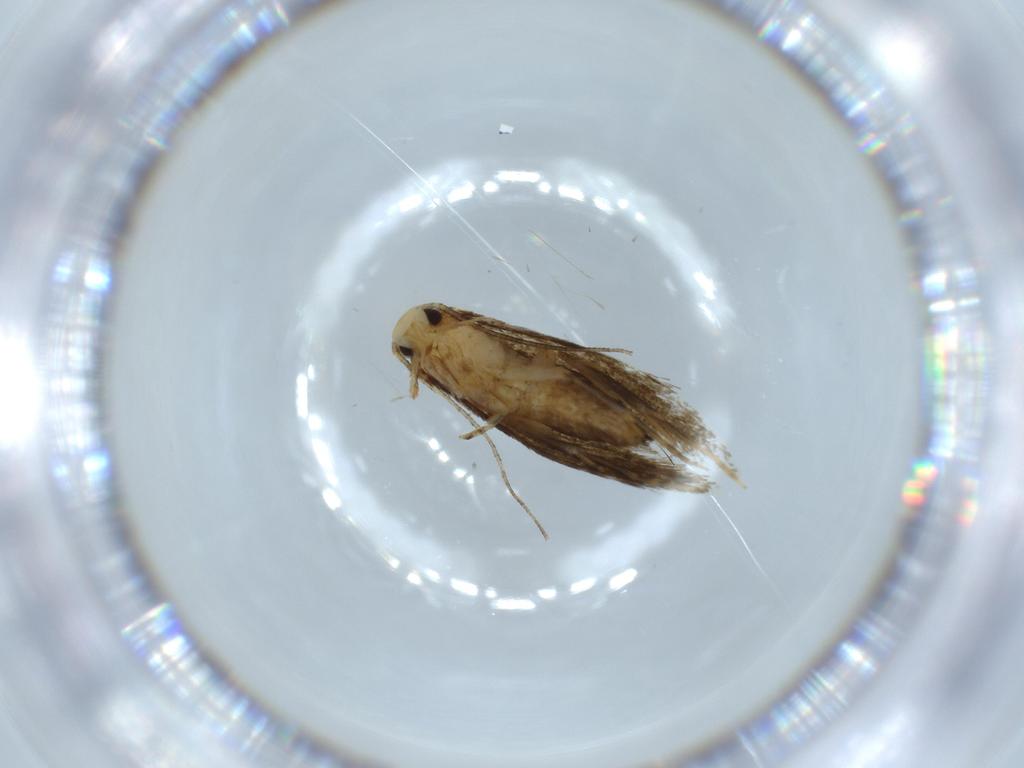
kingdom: Animalia
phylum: Arthropoda
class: Insecta
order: Lepidoptera
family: Tineidae
